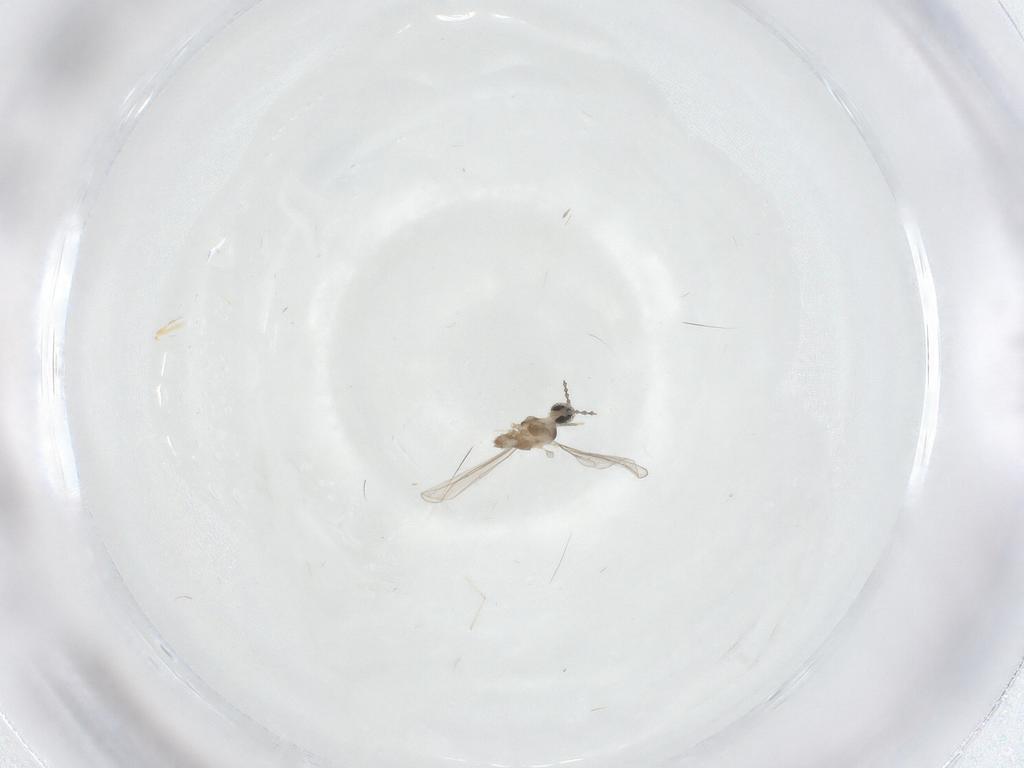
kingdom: Animalia
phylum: Arthropoda
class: Insecta
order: Diptera
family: Cecidomyiidae
